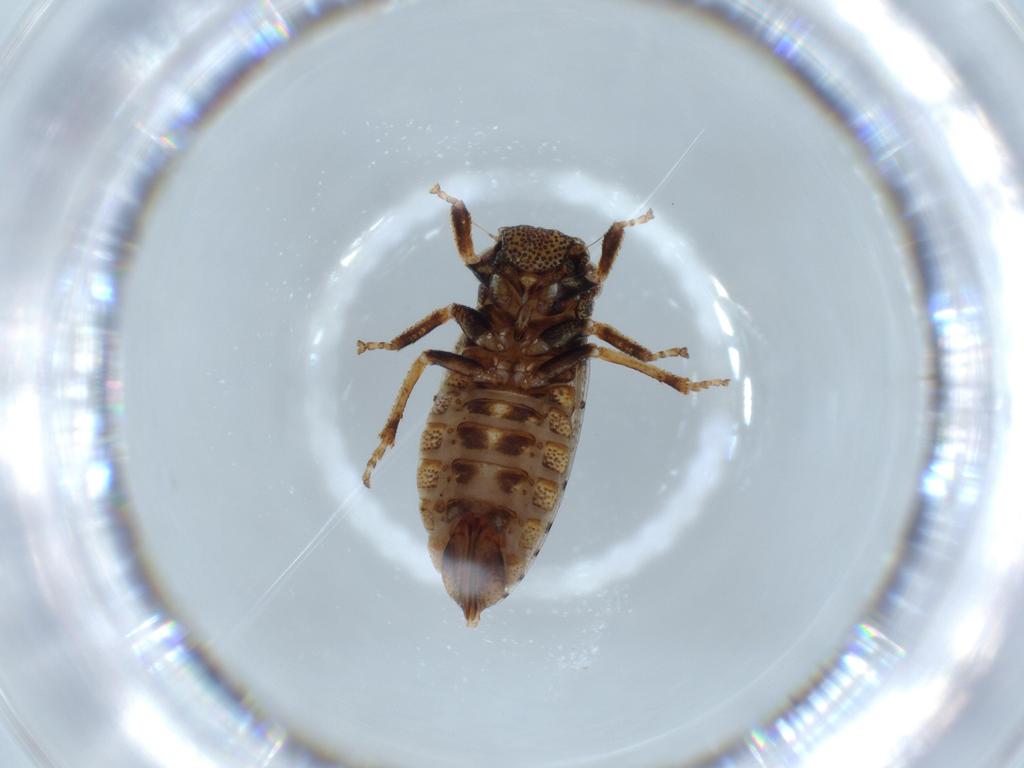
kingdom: Animalia
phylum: Arthropoda
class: Insecta
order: Hemiptera
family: Cicadellidae
